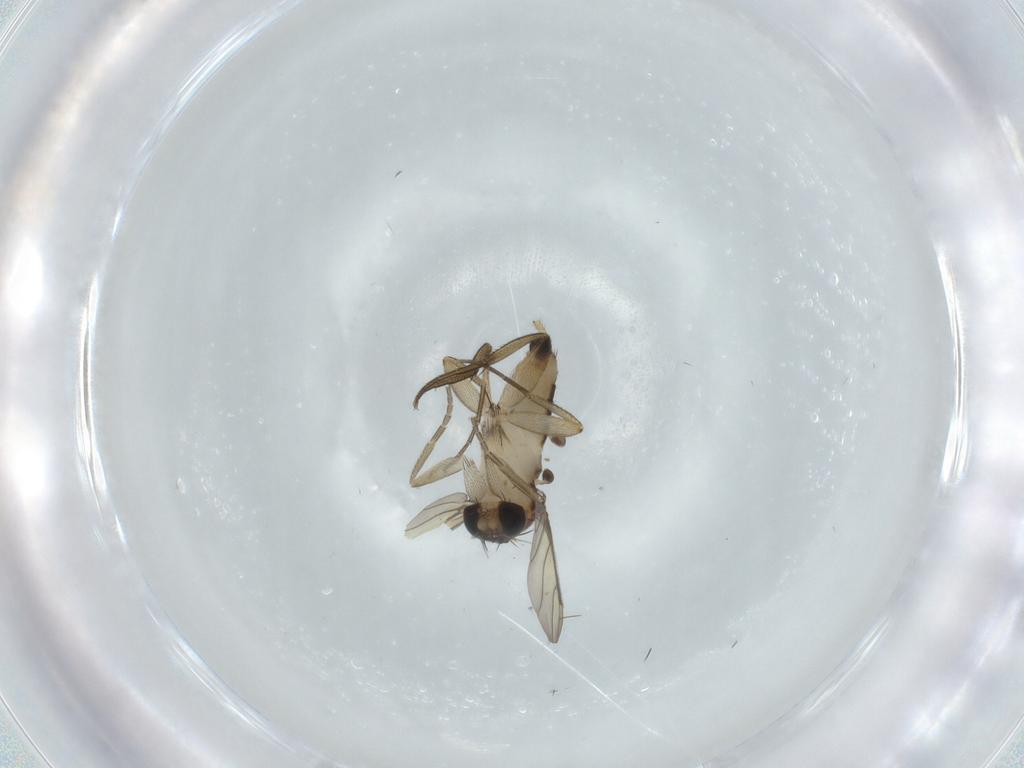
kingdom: Animalia
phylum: Arthropoda
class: Insecta
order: Diptera
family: Phoridae
